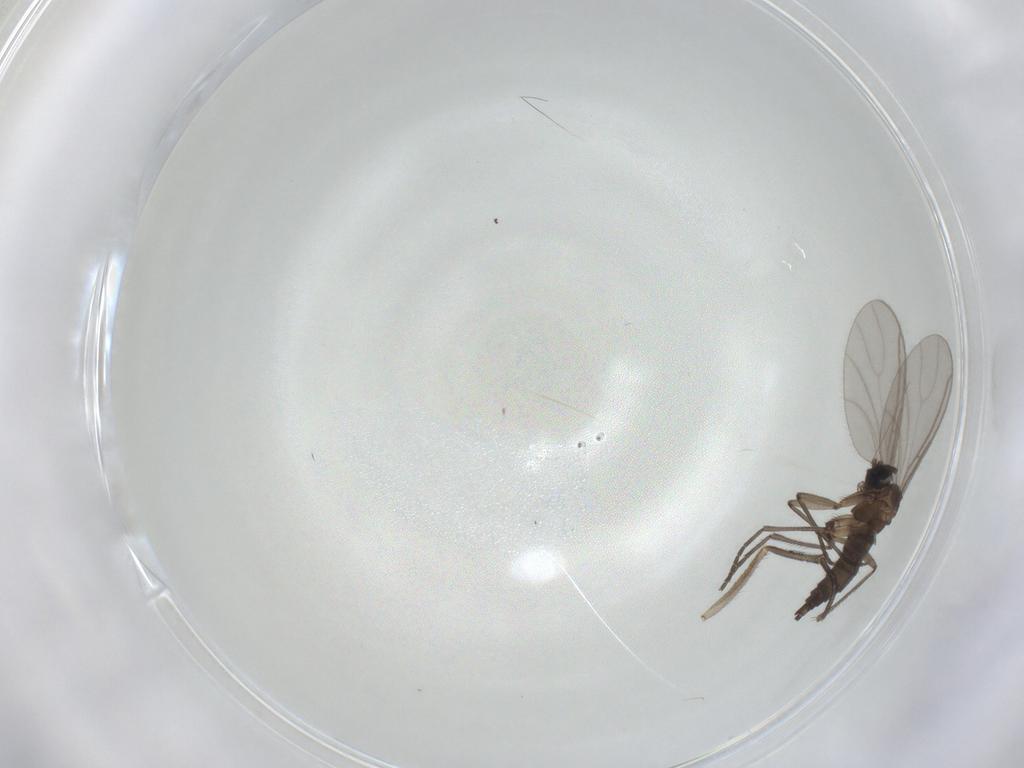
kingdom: Animalia
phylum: Arthropoda
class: Insecta
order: Diptera
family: Sciaridae
